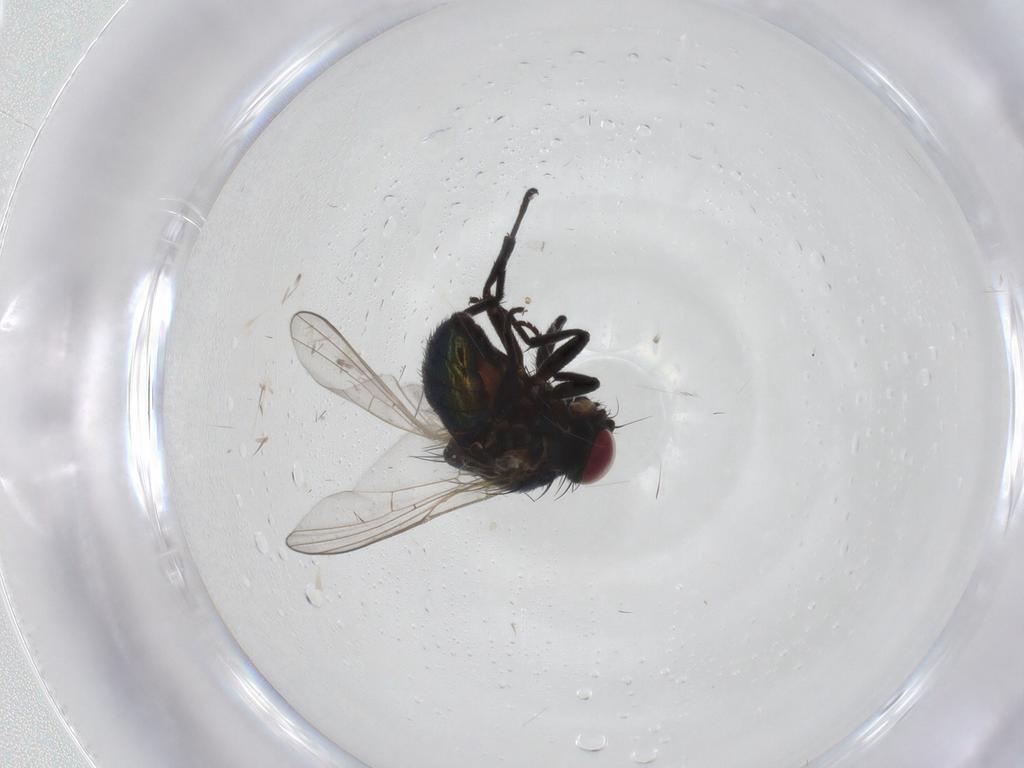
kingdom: Animalia
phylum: Arthropoda
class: Insecta
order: Diptera
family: Agromyzidae
